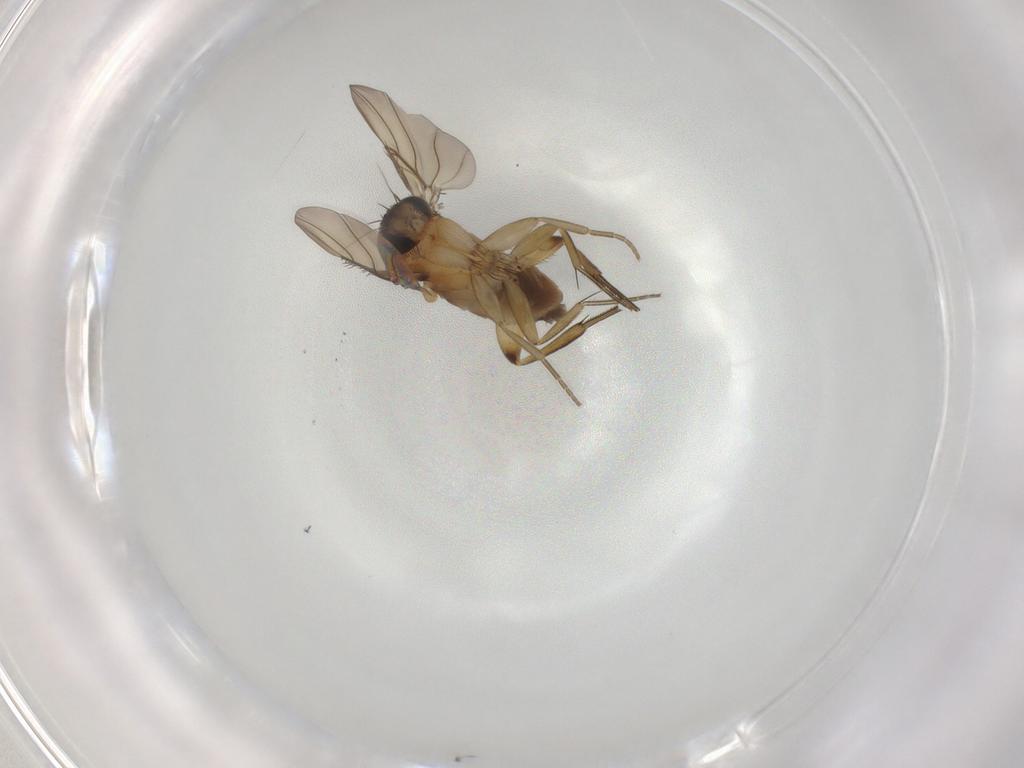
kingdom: Animalia
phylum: Arthropoda
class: Insecta
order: Diptera
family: Phoridae
